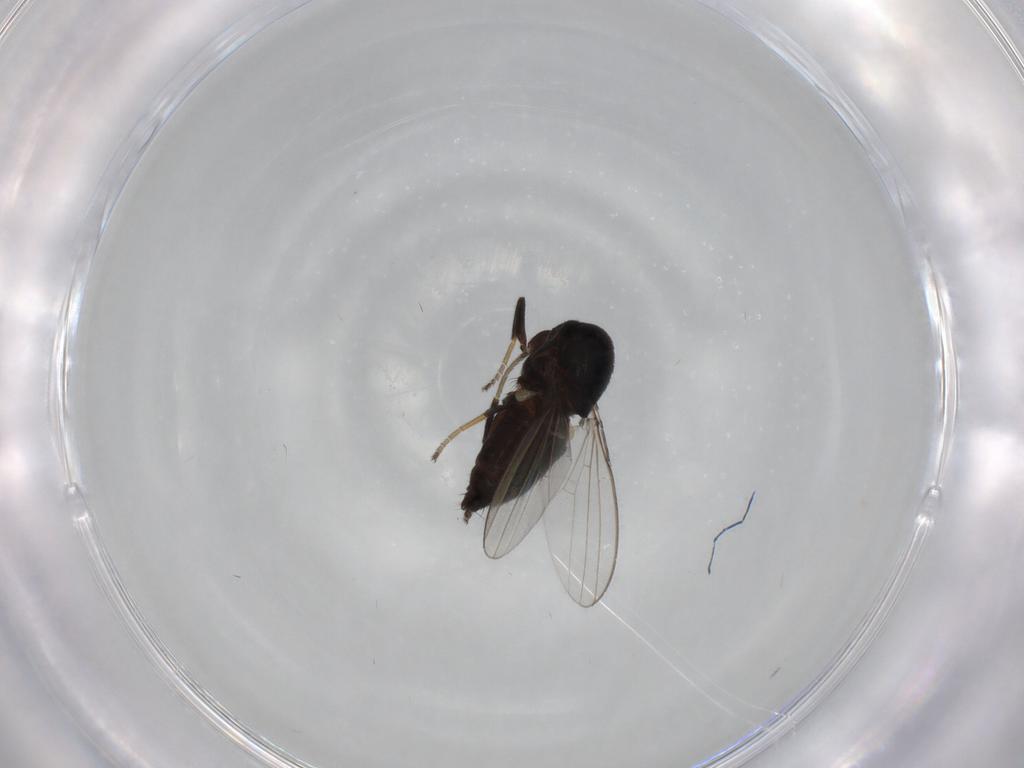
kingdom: Animalia
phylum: Arthropoda
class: Insecta
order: Diptera
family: Milichiidae
